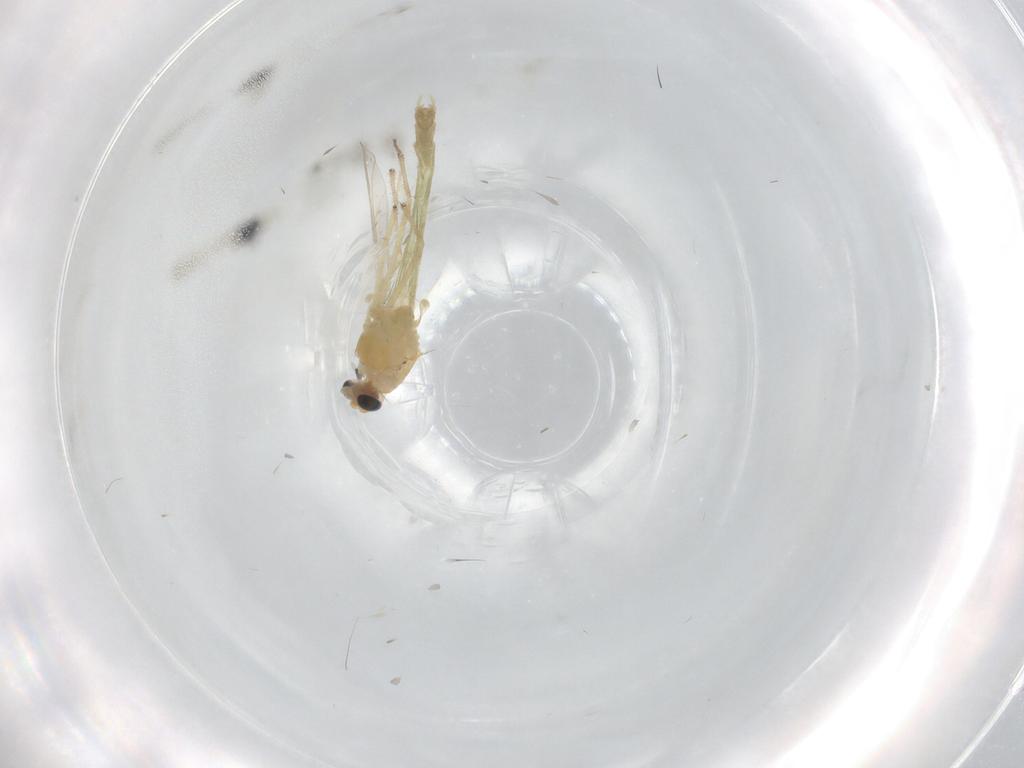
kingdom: Animalia
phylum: Arthropoda
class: Insecta
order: Diptera
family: Chironomidae
